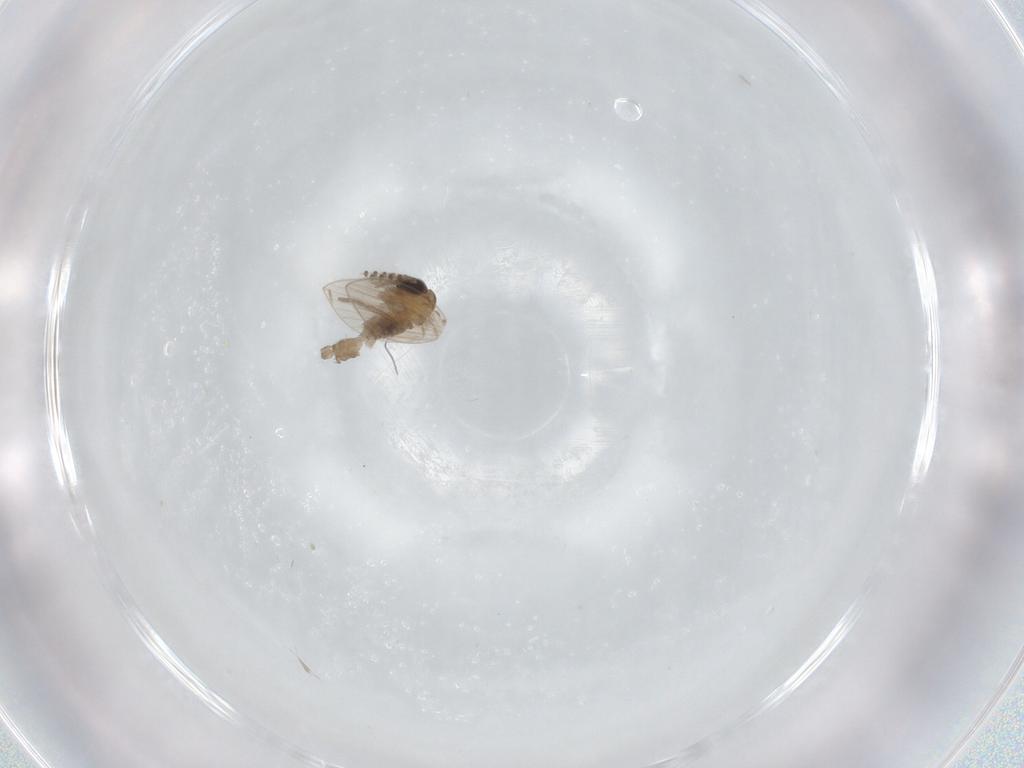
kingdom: Animalia
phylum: Arthropoda
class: Insecta
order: Diptera
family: Psychodidae
